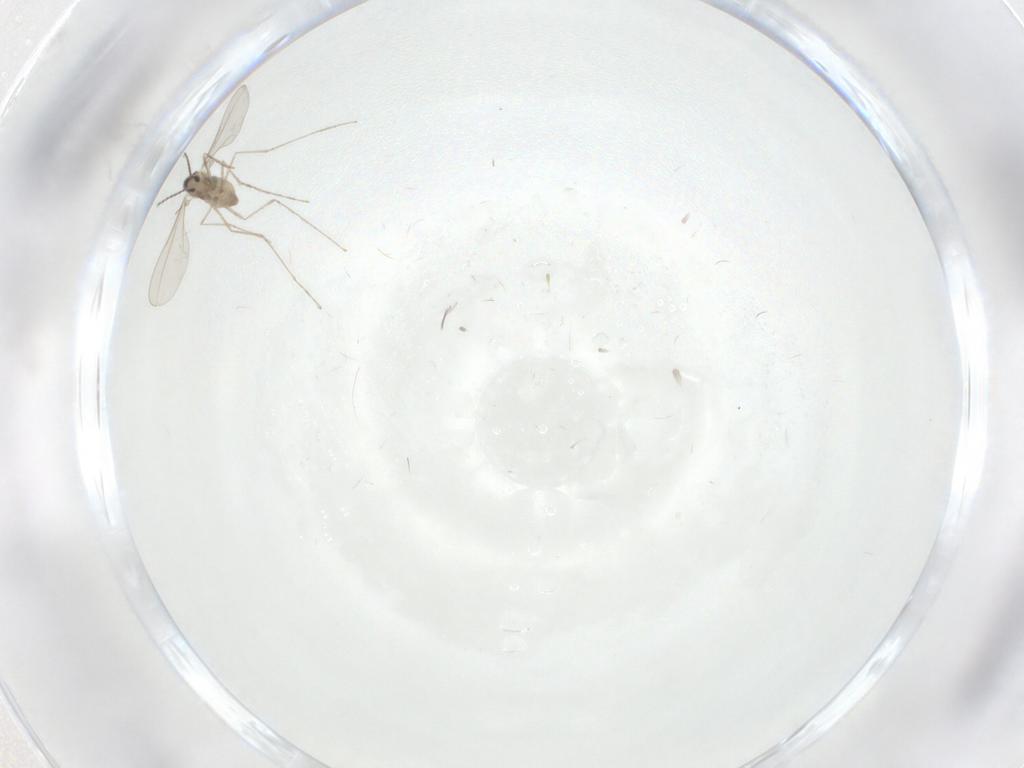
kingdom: Animalia
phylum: Arthropoda
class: Insecta
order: Diptera
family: Cecidomyiidae
